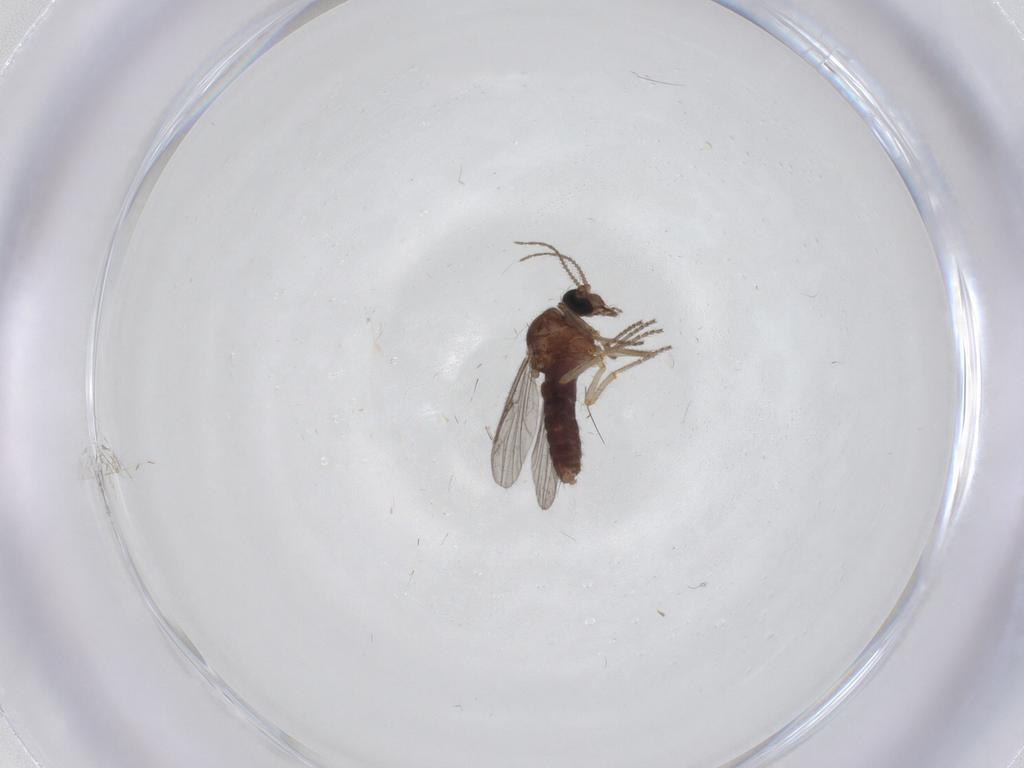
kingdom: Animalia
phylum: Arthropoda
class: Insecta
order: Diptera
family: Ceratopogonidae
